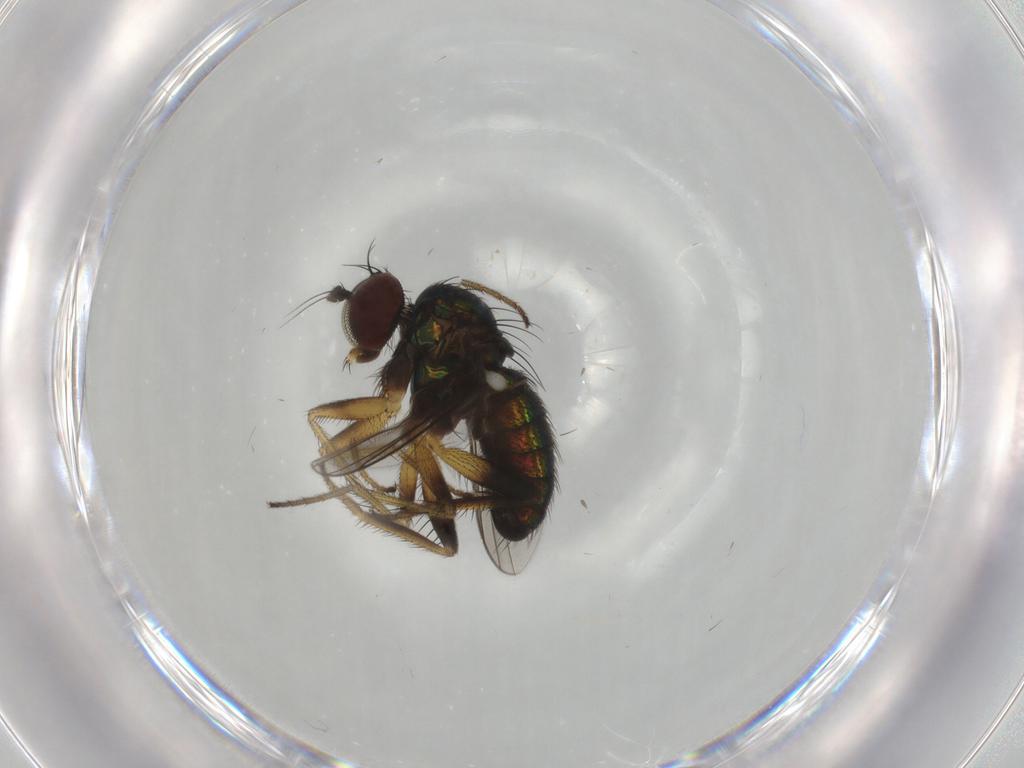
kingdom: Animalia
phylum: Arthropoda
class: Insecta
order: Diptera
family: Dolichopodidae
